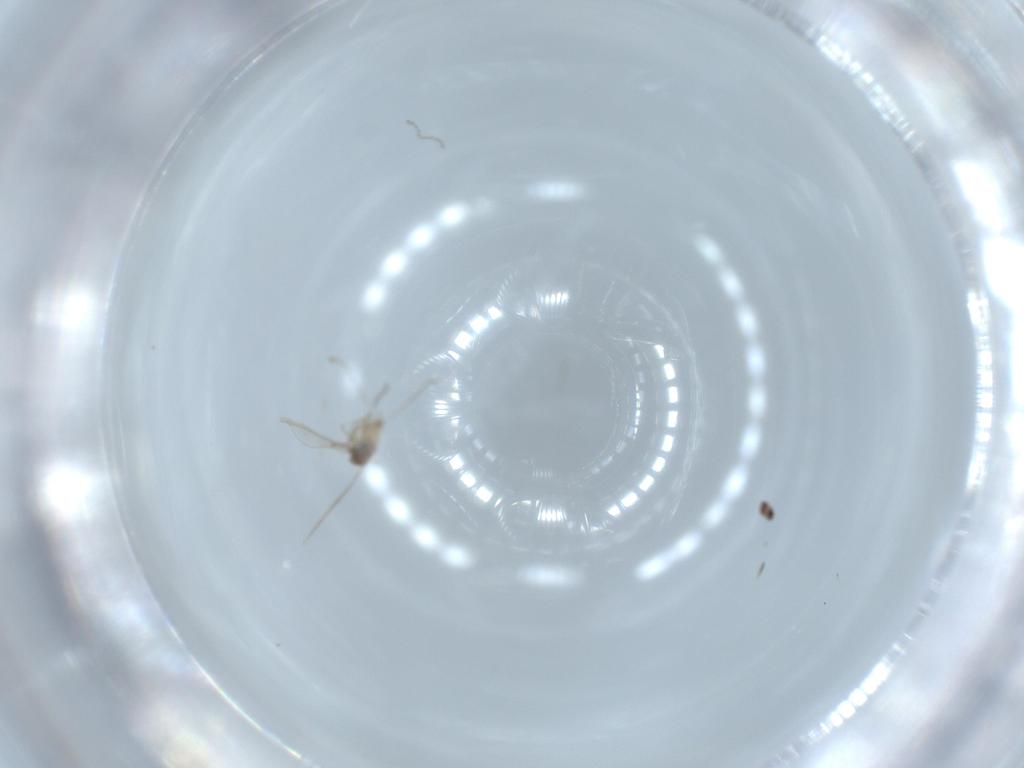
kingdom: Animalia
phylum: Arthropoda
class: Insecta
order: Diptera
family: Cecidomyiidae
